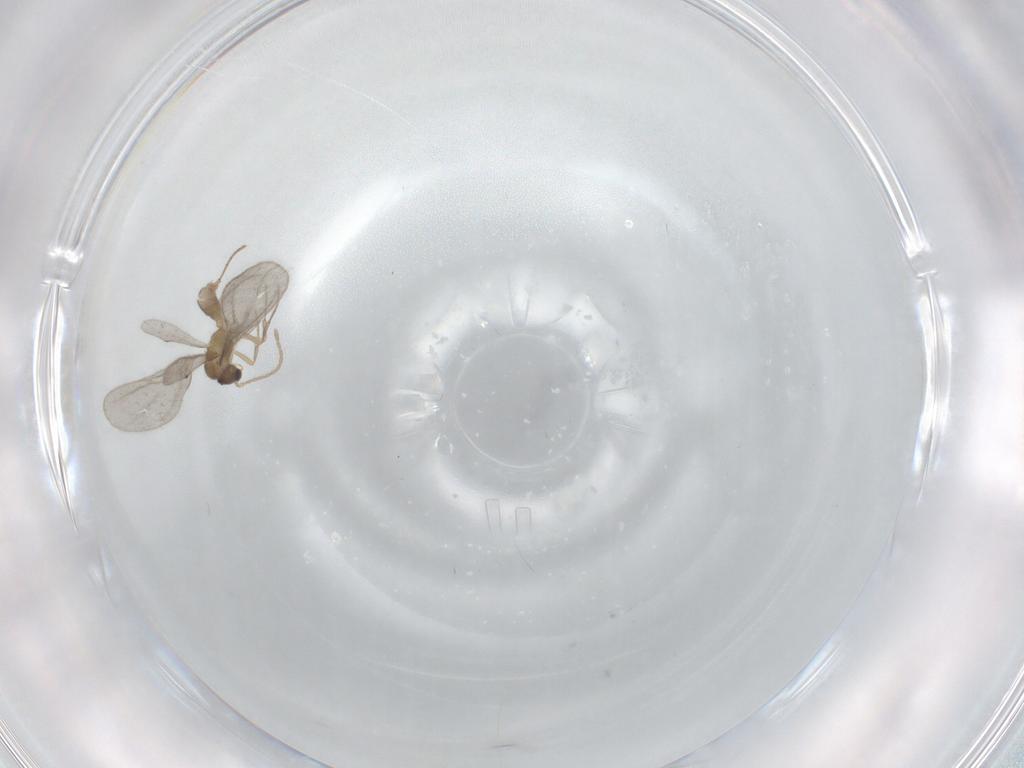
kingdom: Animalia
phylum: Arthropoda
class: Insecta
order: Hymenoptera
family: Formicidae
